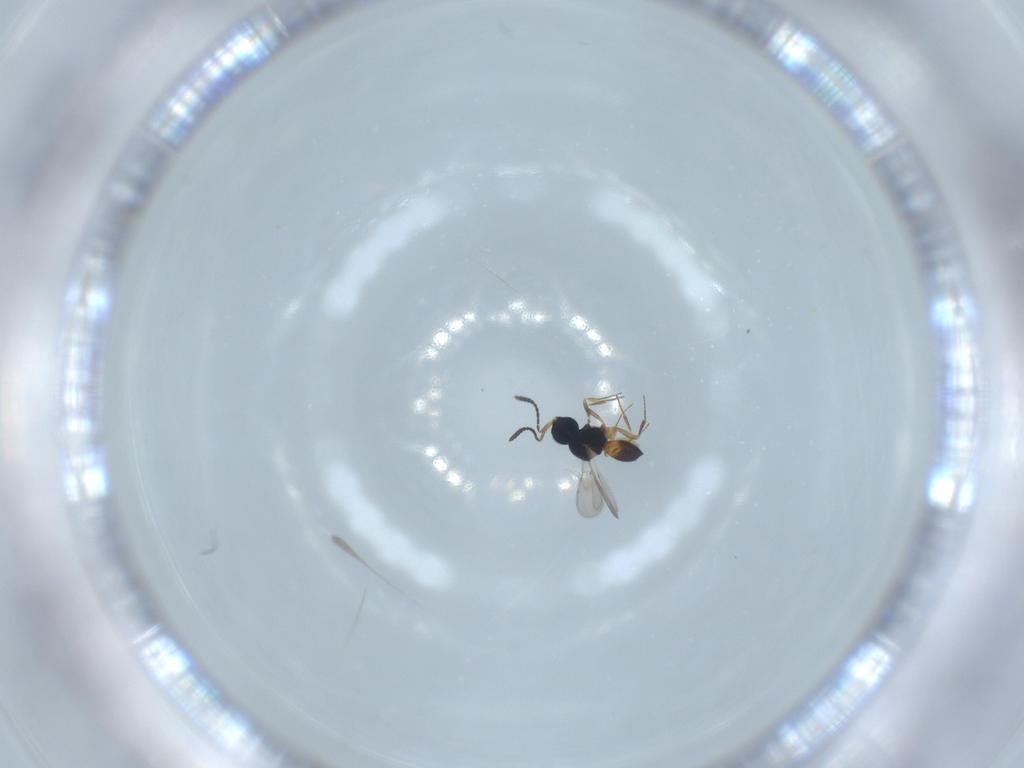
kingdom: Animalia
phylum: Arthropoda
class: Insecta
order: Hymenoptera
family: Scelionidae
